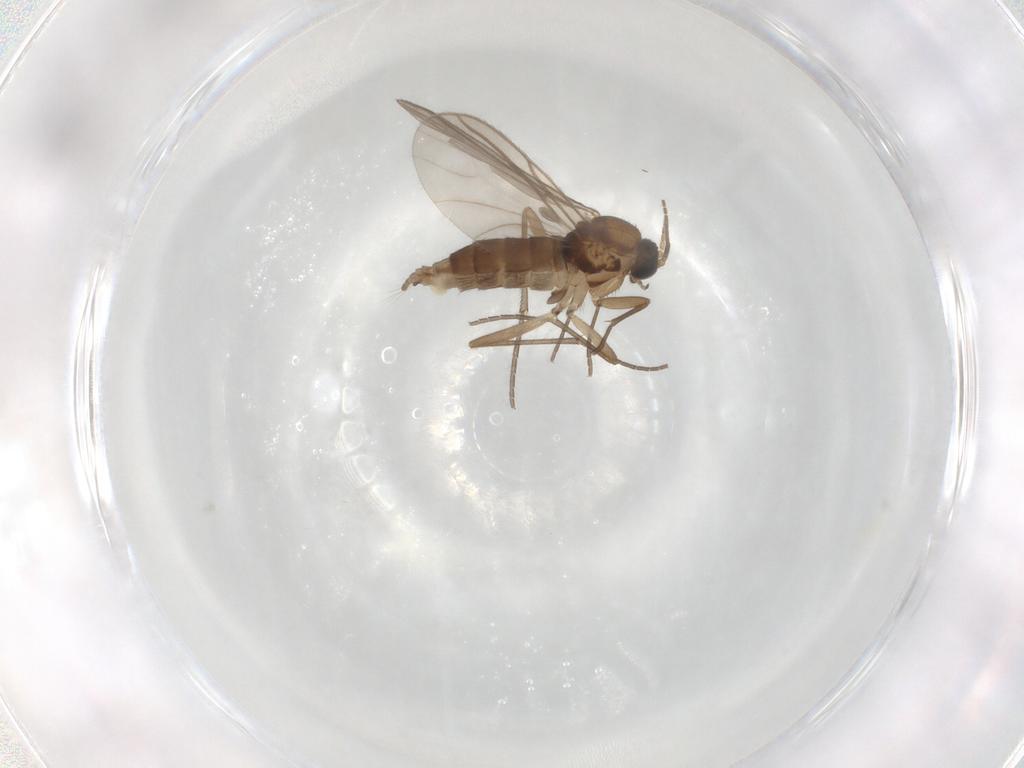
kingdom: Animalia
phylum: Arthropoda
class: Insecta
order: Diptera
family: Sciaridae
